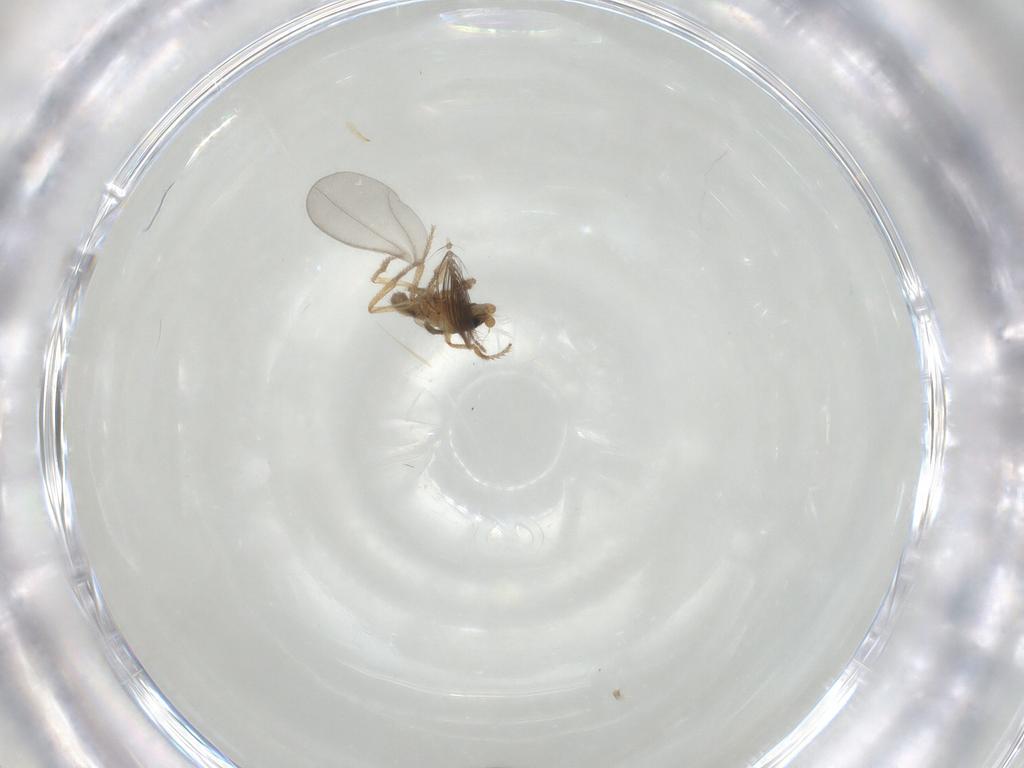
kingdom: Animalia
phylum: Arthropoda
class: Insecta
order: Diptera
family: Phoridae
